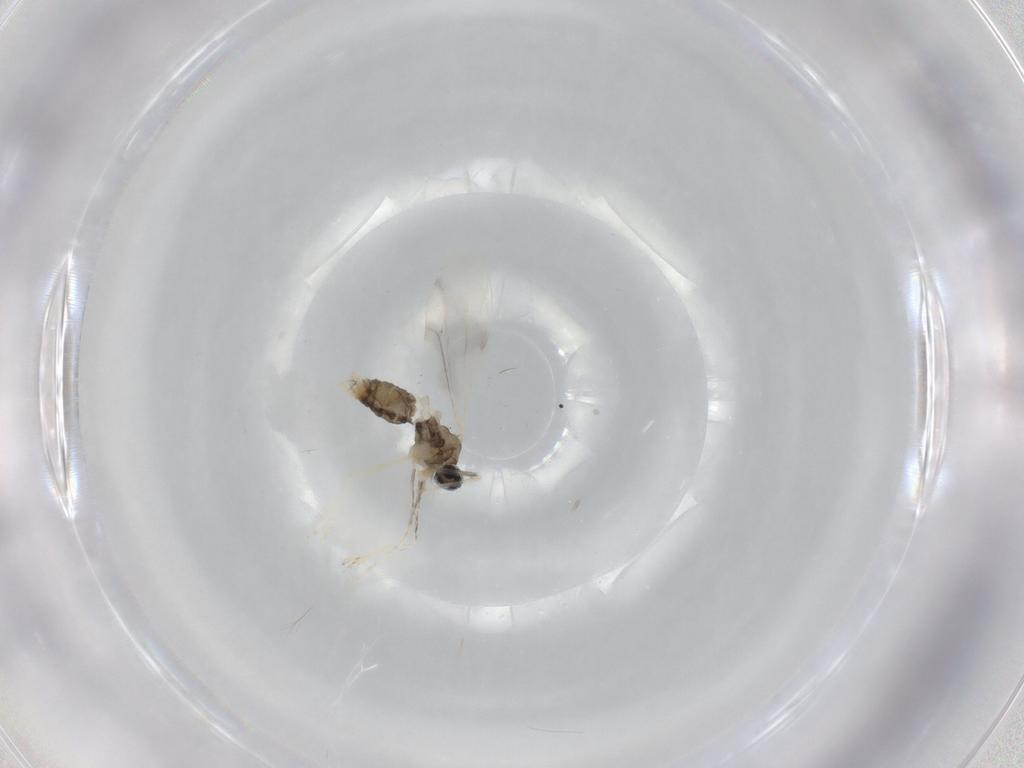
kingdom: Animalia
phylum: Arthropoda
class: Insecta
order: Diptera
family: Cecidomyiidae
